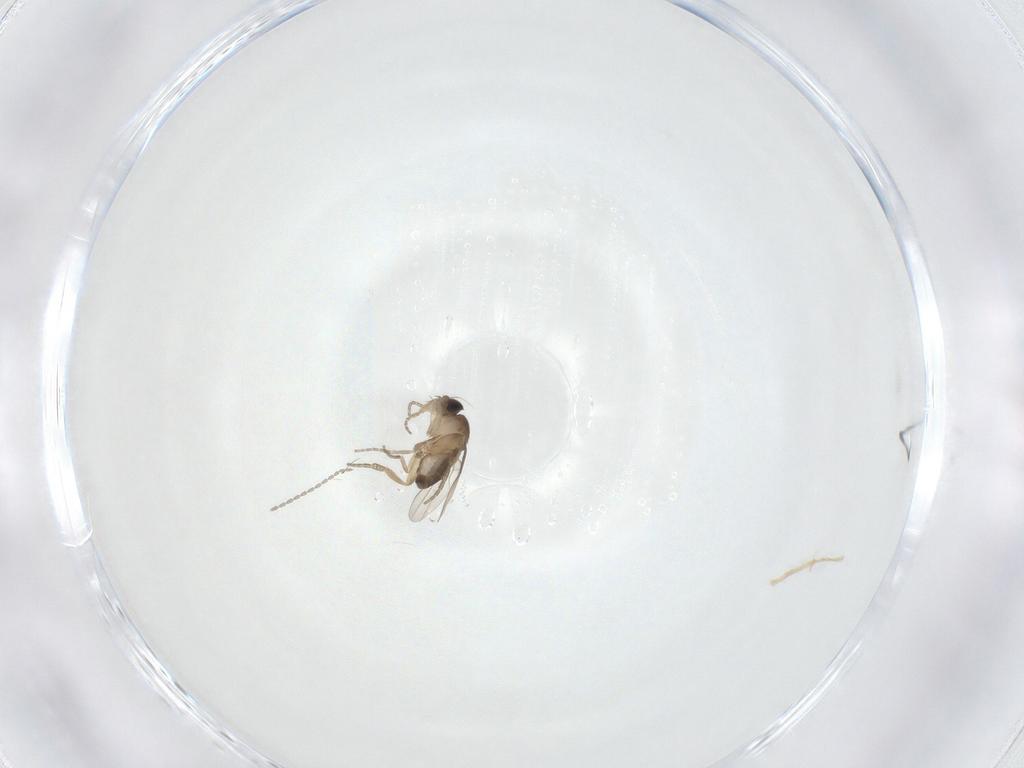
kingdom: Animalia
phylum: Arthropoda
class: Insecta
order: Diptera
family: Cecidomyiidae
